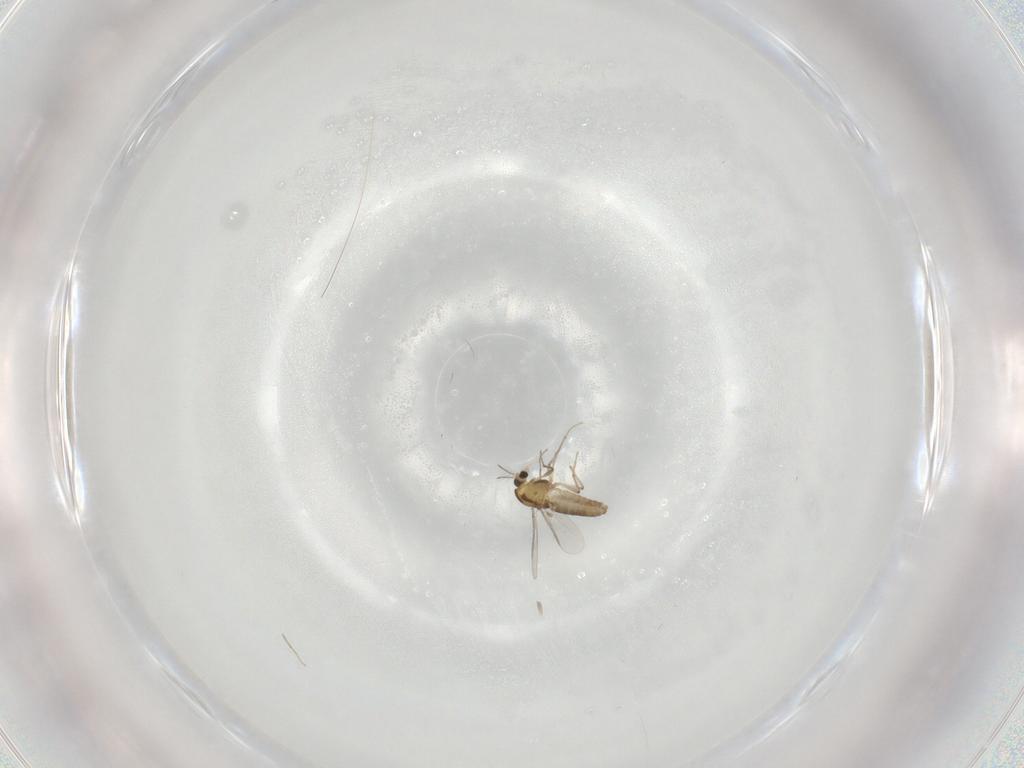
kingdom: Animalia
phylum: Arthropoda
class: Insecta
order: Diptera
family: Chironomidae
